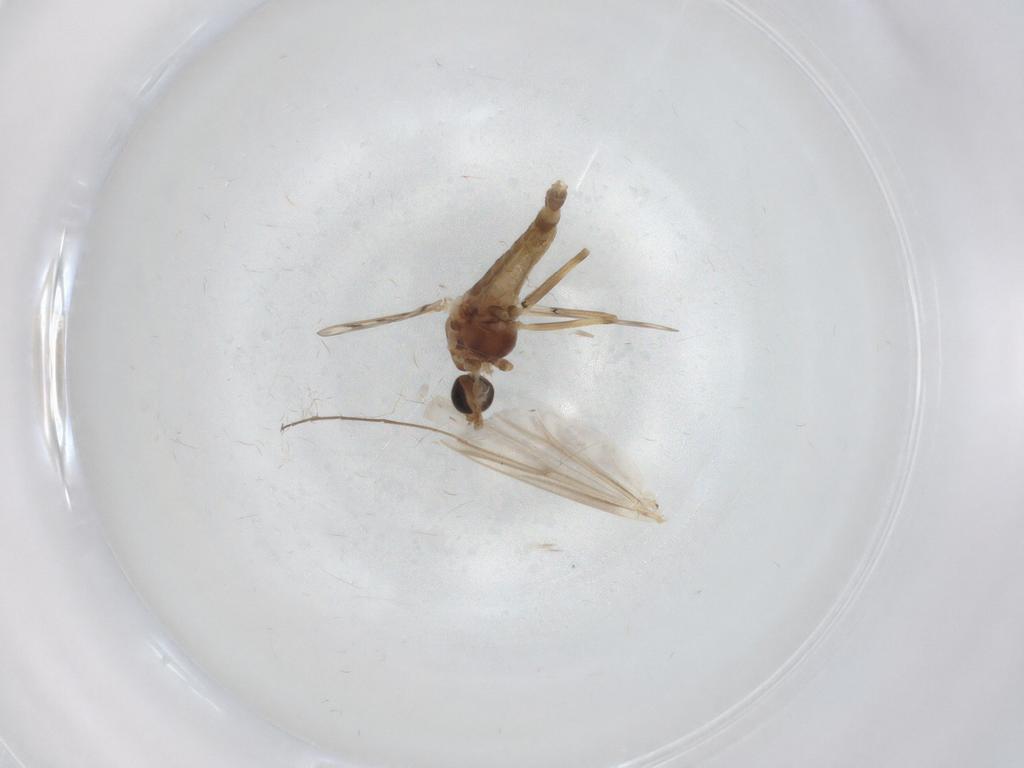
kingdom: Animalia
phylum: Arthropoda
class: Insecta
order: Diptera
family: Chironomidae
